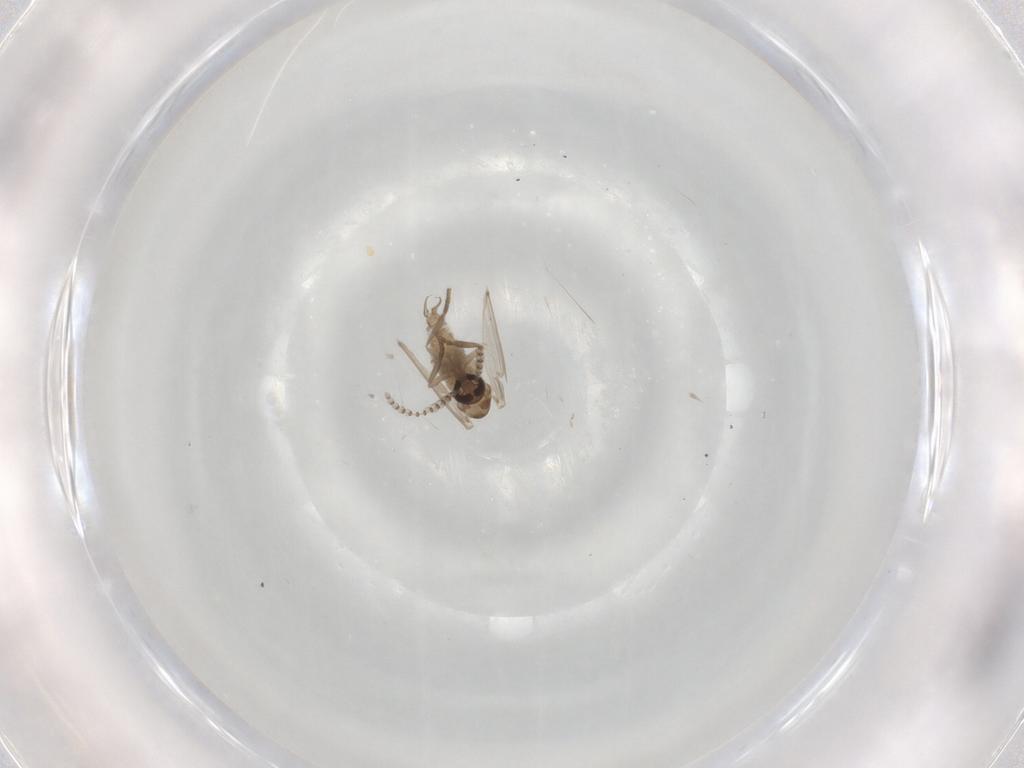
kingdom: Animalia
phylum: Arthropoda
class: Insecta
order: Diptera
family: Psychodidae
